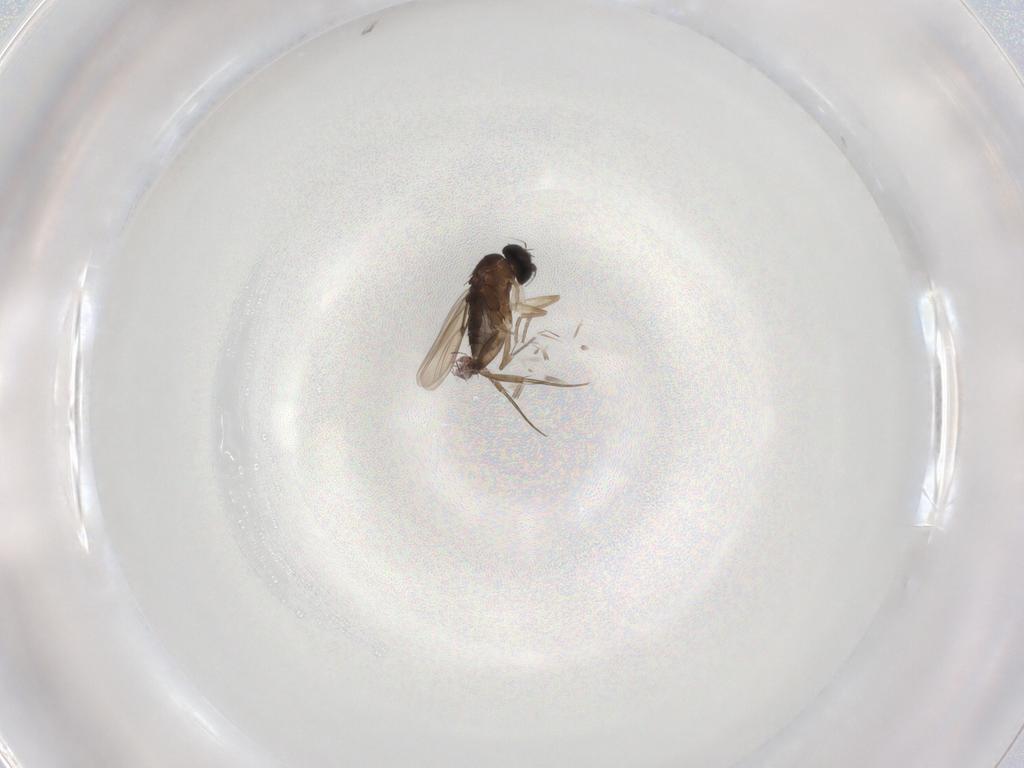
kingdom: Animalia
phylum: Arthropoda
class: Insecta
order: Diptera
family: Phoridae
